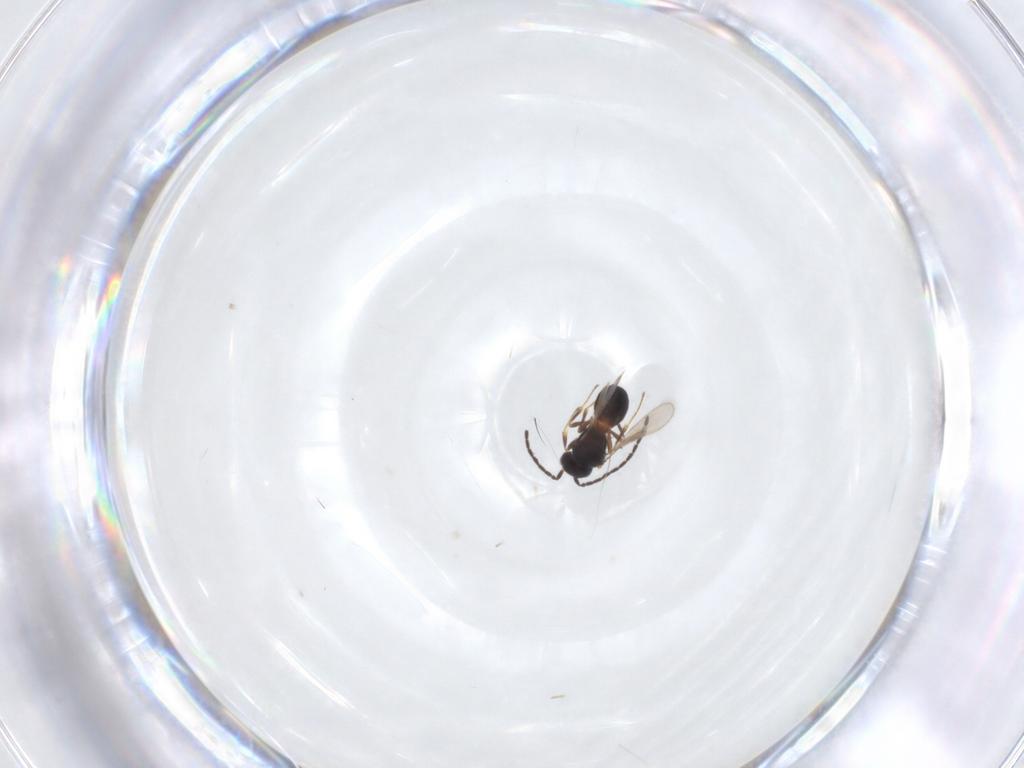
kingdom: Animalia
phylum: Arthropoda
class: Insecta
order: Hymenoptera
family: Scelionidae
